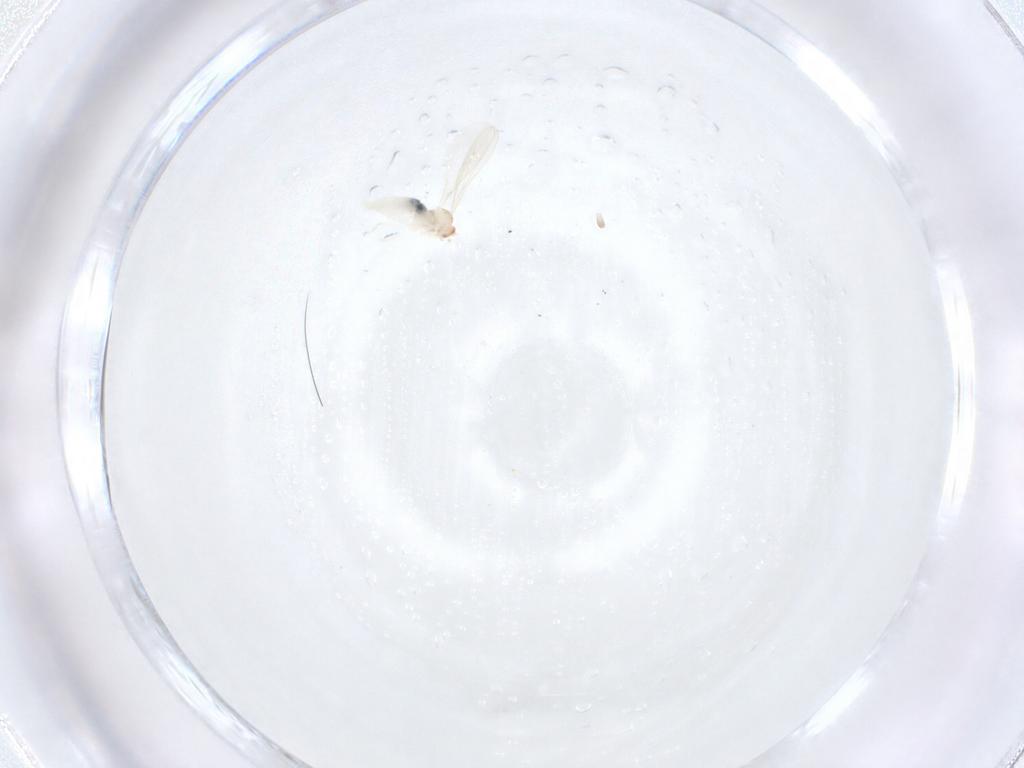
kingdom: Animalia
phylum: Arthropoda
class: Insecta
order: Diptera
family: Cecidomyiidae
